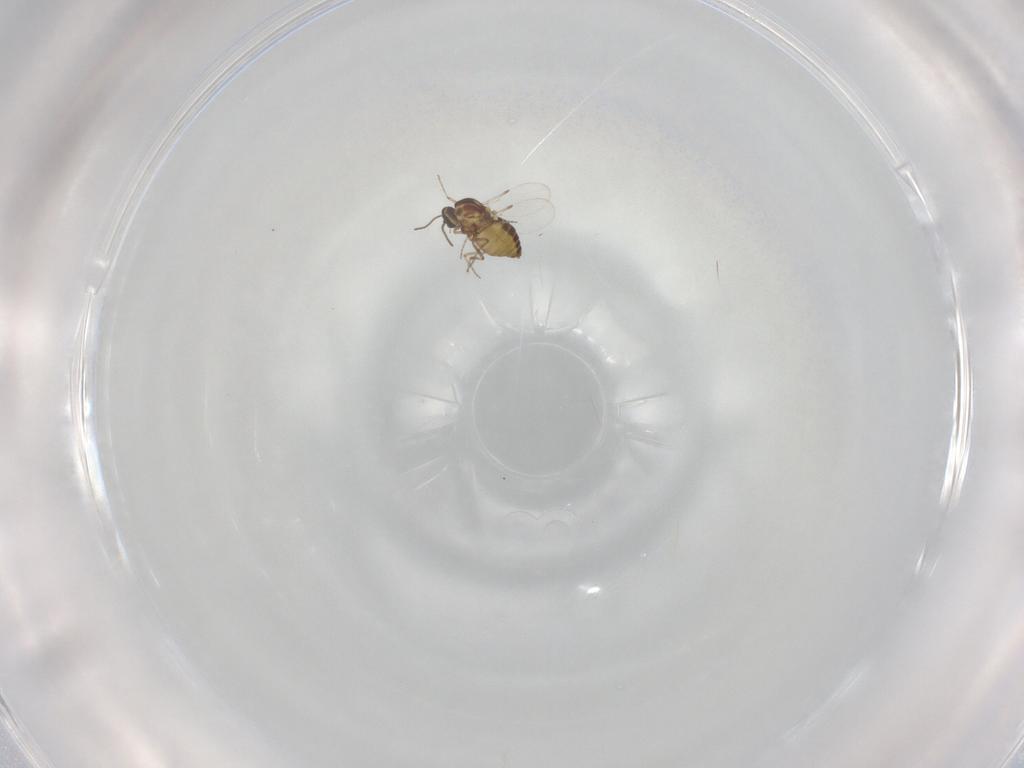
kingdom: Animalia
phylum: Arthropoda
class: Insecta
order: Diptera
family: Ceratopogonidae
